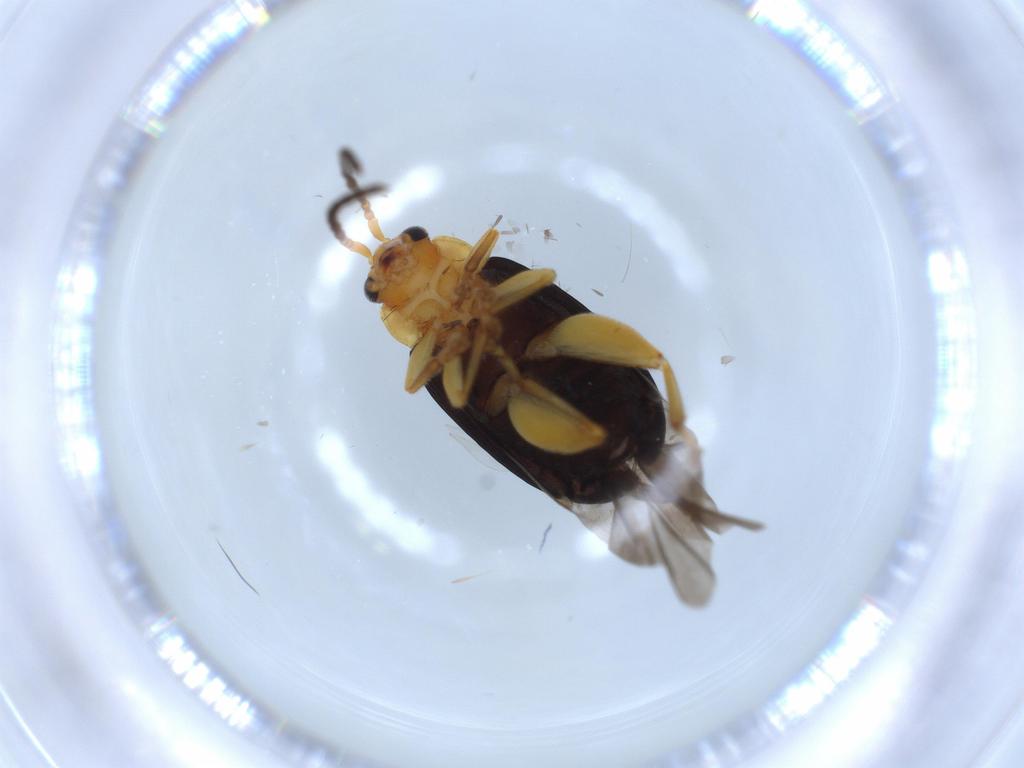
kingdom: Animalia
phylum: Arthropoda
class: Insecta
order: Coleoptera
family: Chrysomelidae
